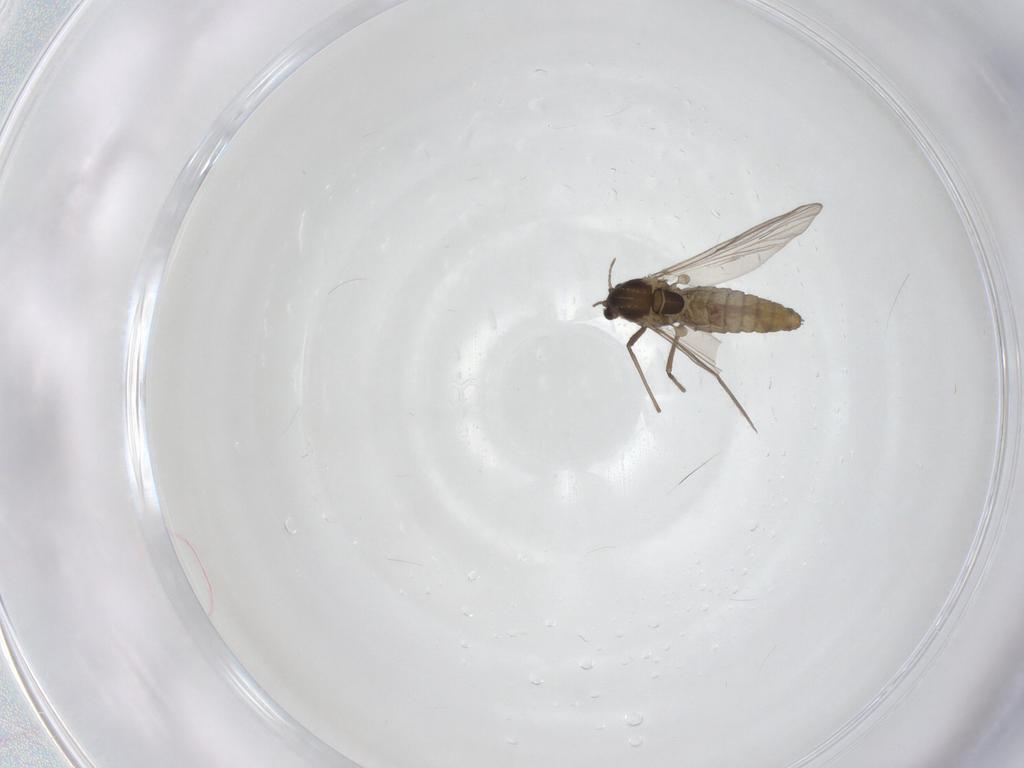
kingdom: Animalia
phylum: Arthropoda
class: Insecta
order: Diptera
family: Chironomidae
